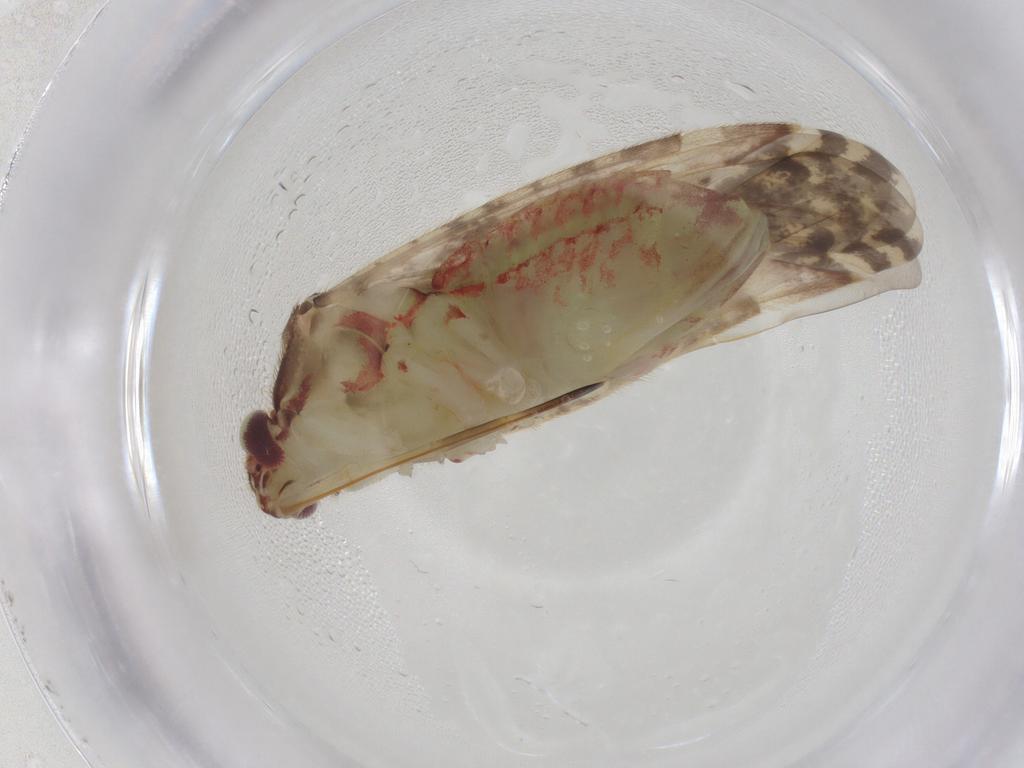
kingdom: Animalia
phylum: Arthropoda
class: Insecta
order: Hemiptera
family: Miridae
